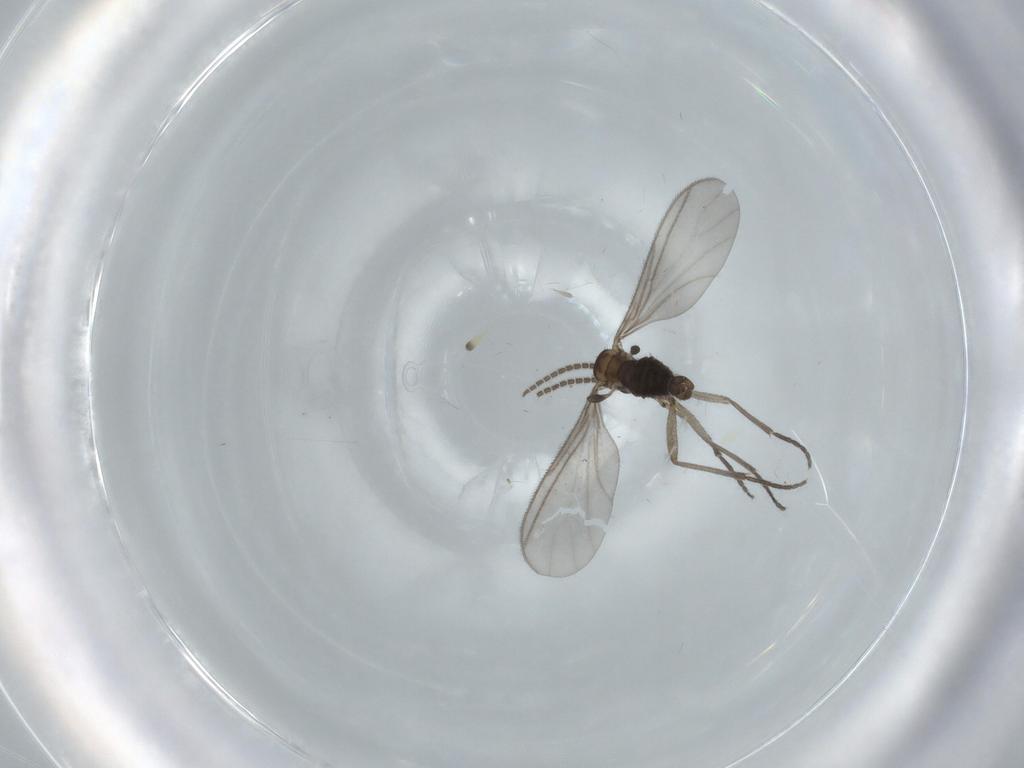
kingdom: Animalia
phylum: Arthropoda
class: Insecta
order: Diptera
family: Sciaridae
